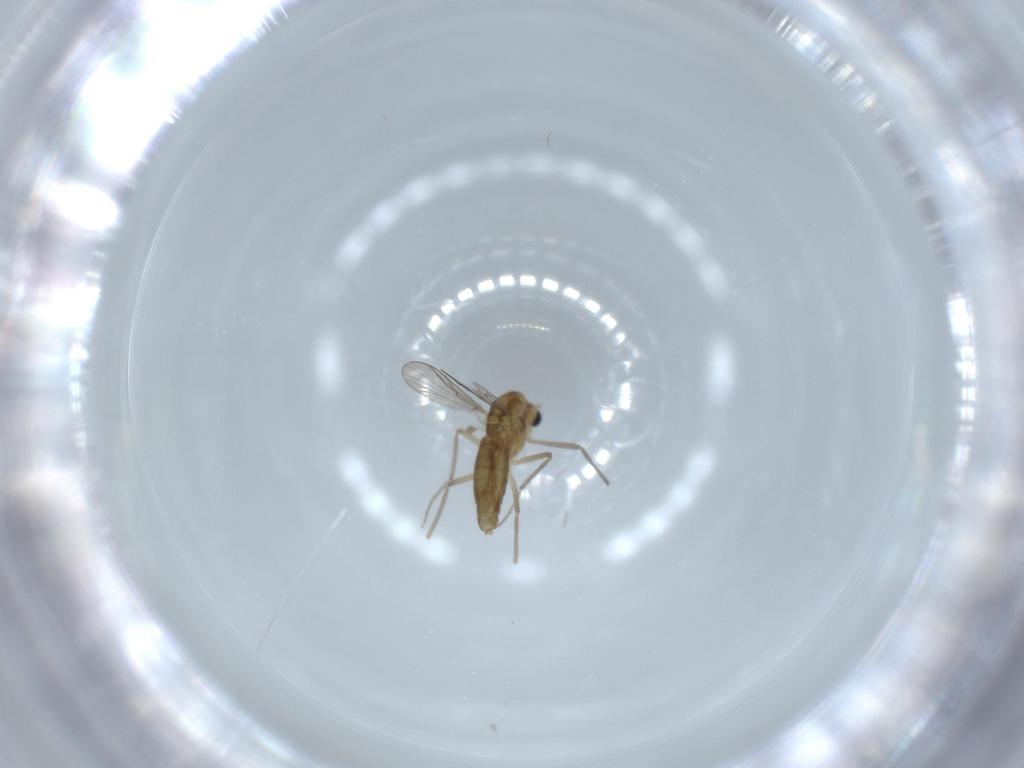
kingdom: Animalia
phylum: Arthropoda
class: Insecta
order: Diptera
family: Chironomidae
